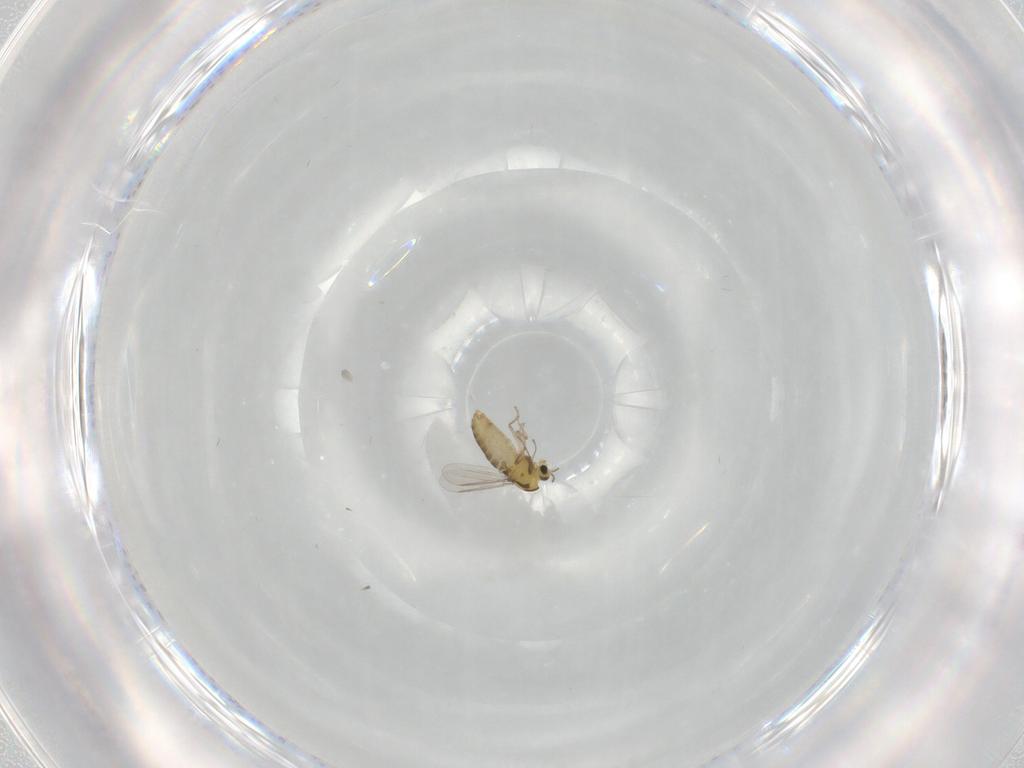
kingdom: Animalia
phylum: Arthropoda
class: Insecta
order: Diptera
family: Chironomidae
